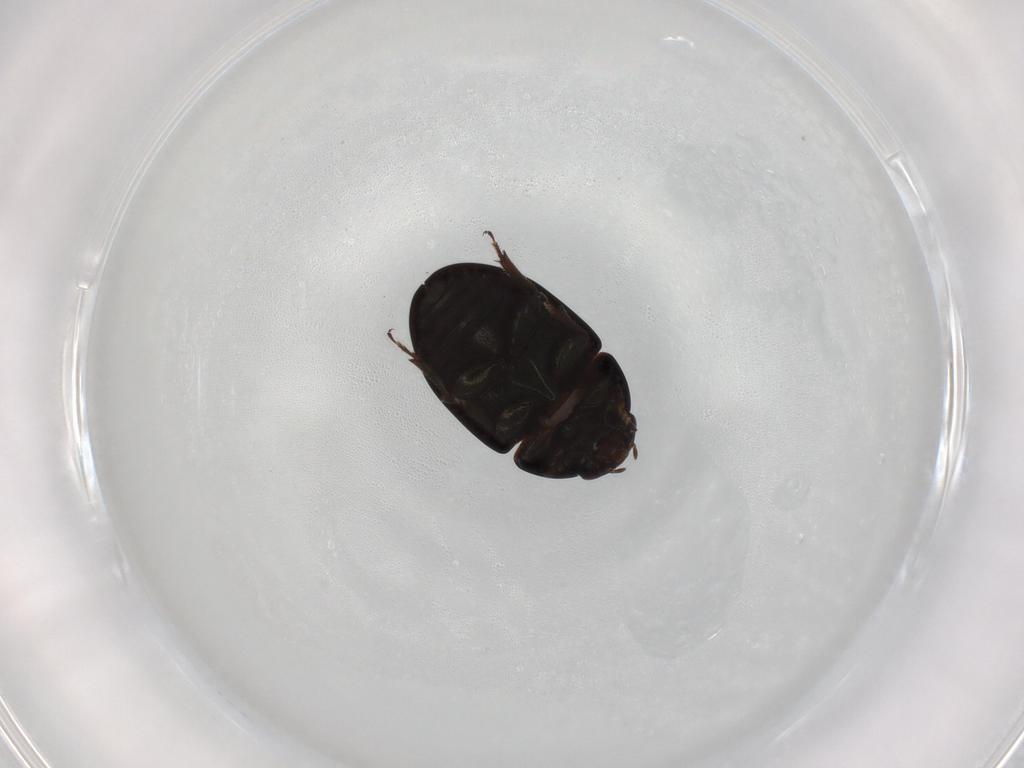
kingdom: Animalia
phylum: Arthropoda
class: Insecta
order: Coleoptera
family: Phalacridae
